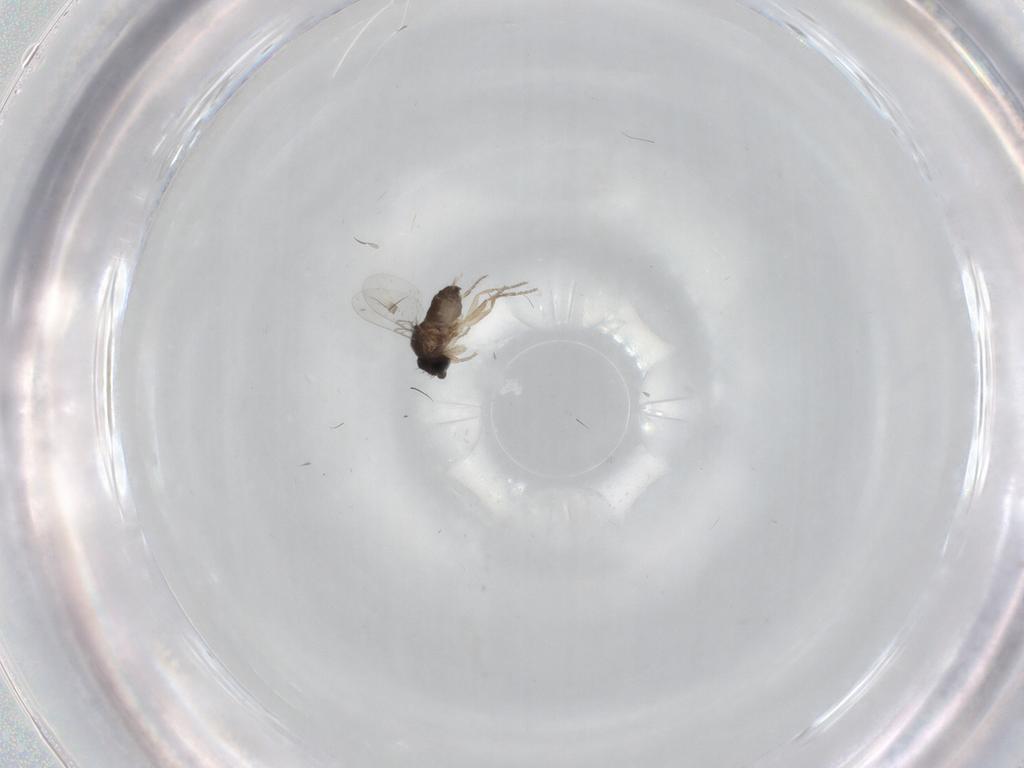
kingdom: Animalia
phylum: Arthropoda
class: Insecta
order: Diptera
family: Phoridae
